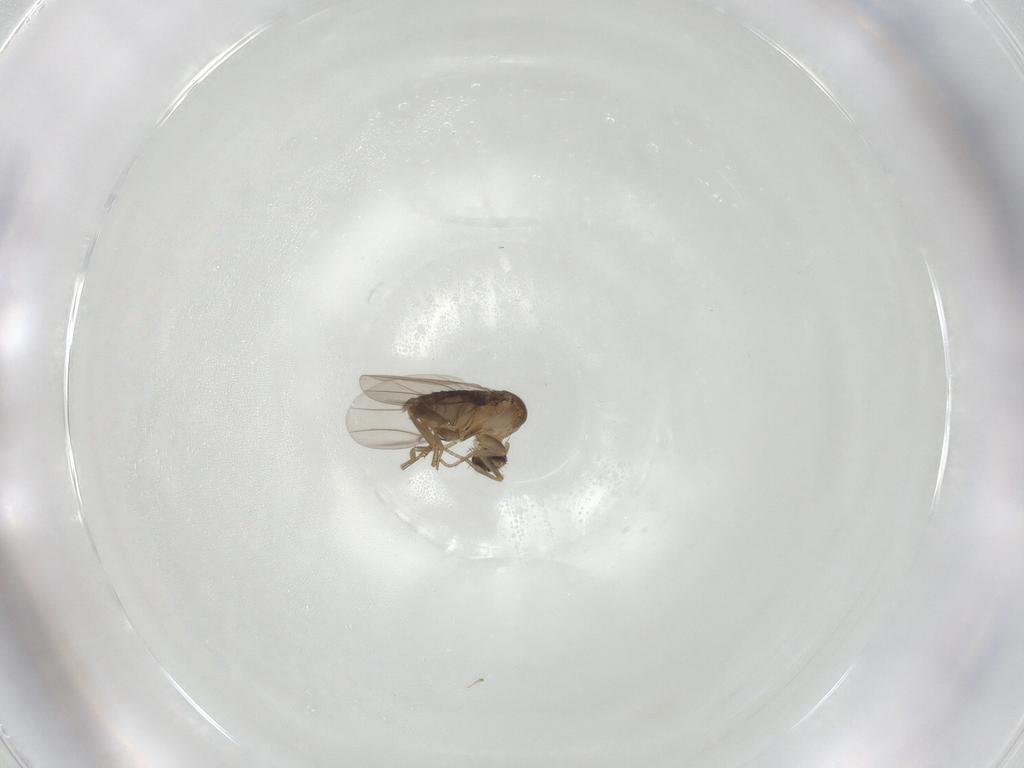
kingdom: Animalia
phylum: Arthropoda
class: Insecta
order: Diptera
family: Phoridae
